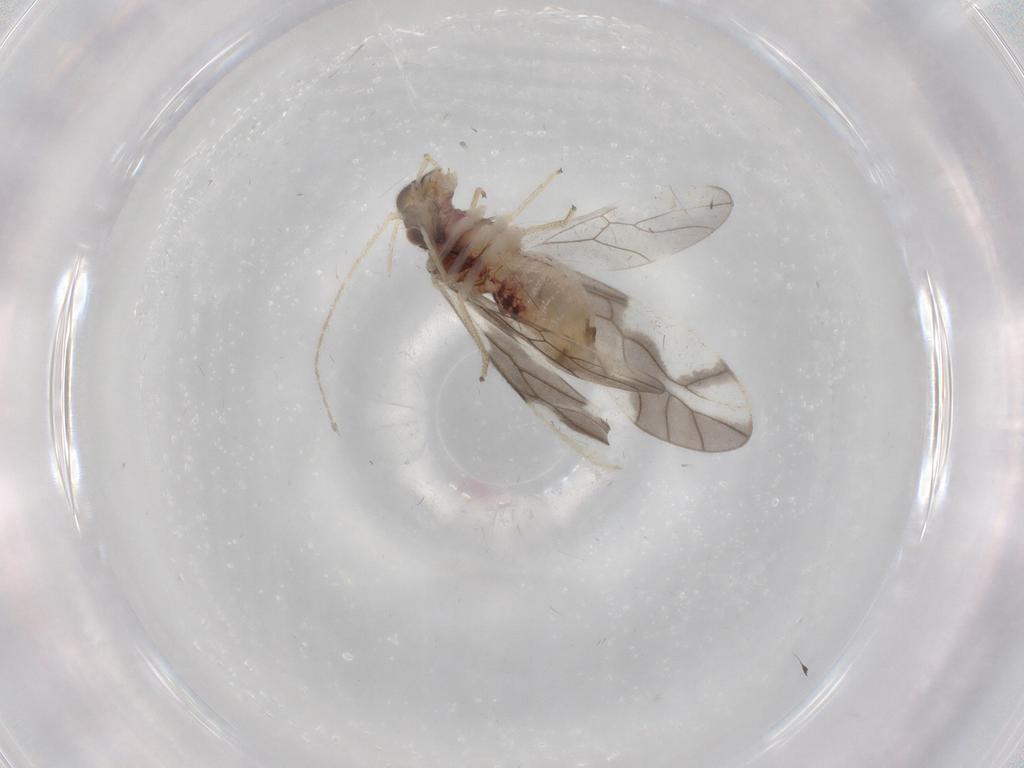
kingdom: Animalia
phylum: Arthropoda
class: Insecta
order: Psocodea
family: Caeciliusidae
